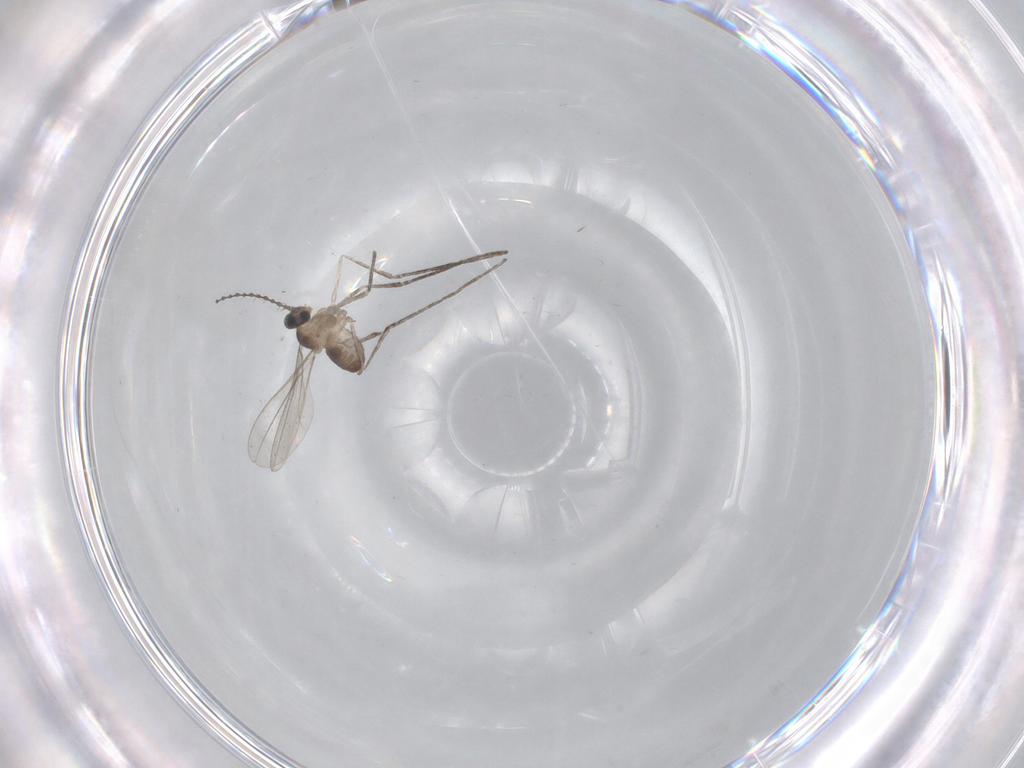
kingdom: Animalia
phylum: Arthropoda
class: Insecta
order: Diptera
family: Cecidomyiidae
